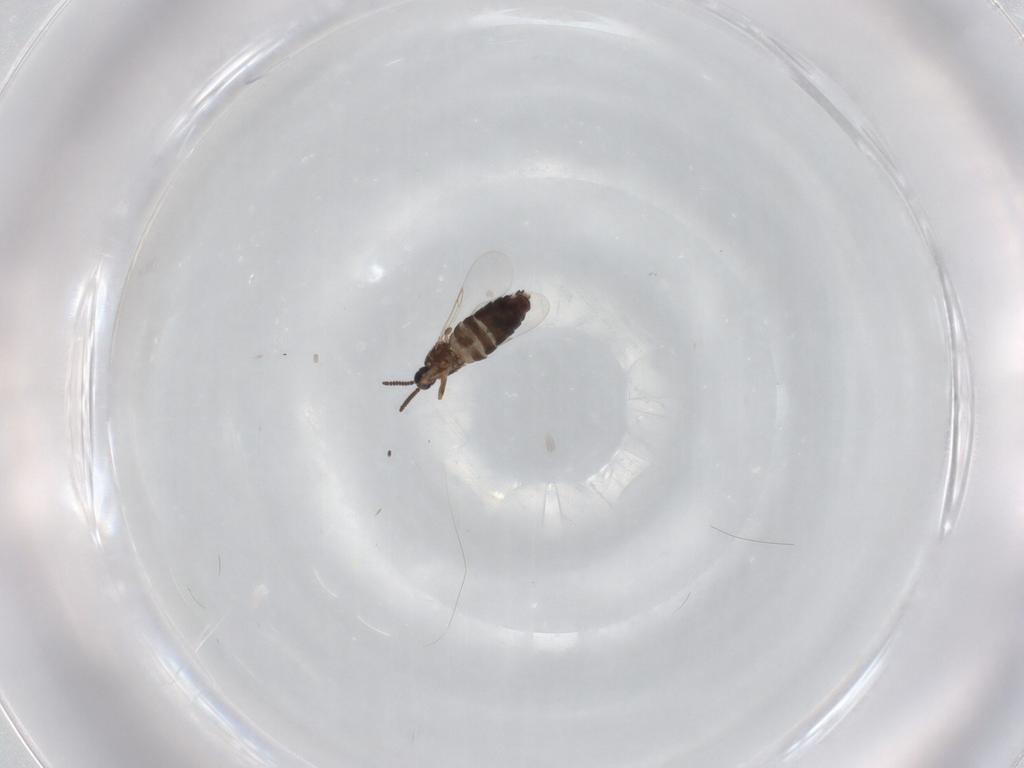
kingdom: Animalia
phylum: Arthropoda
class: Insecta
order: Diptera
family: Scatopsidae
